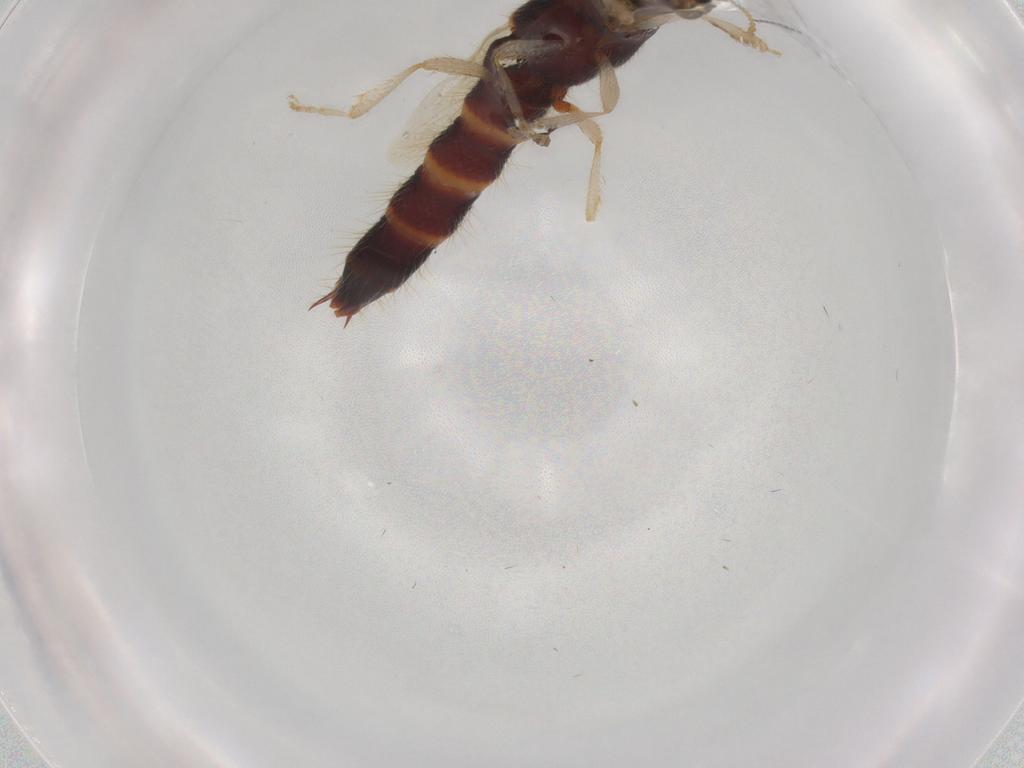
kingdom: Animalia
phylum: Arthropoda
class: Insecta
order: Coleoptera
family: Staphylinidae
